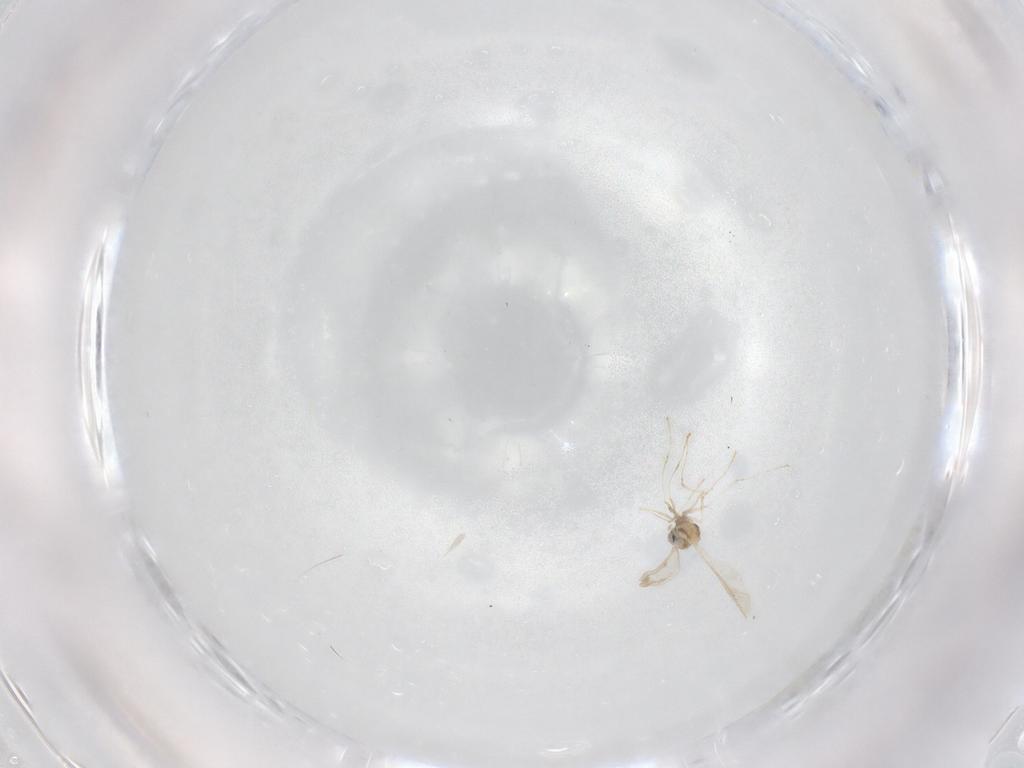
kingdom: Animalia
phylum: Arthropoda
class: Insecta
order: Diptera
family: Cecidomyiidae
